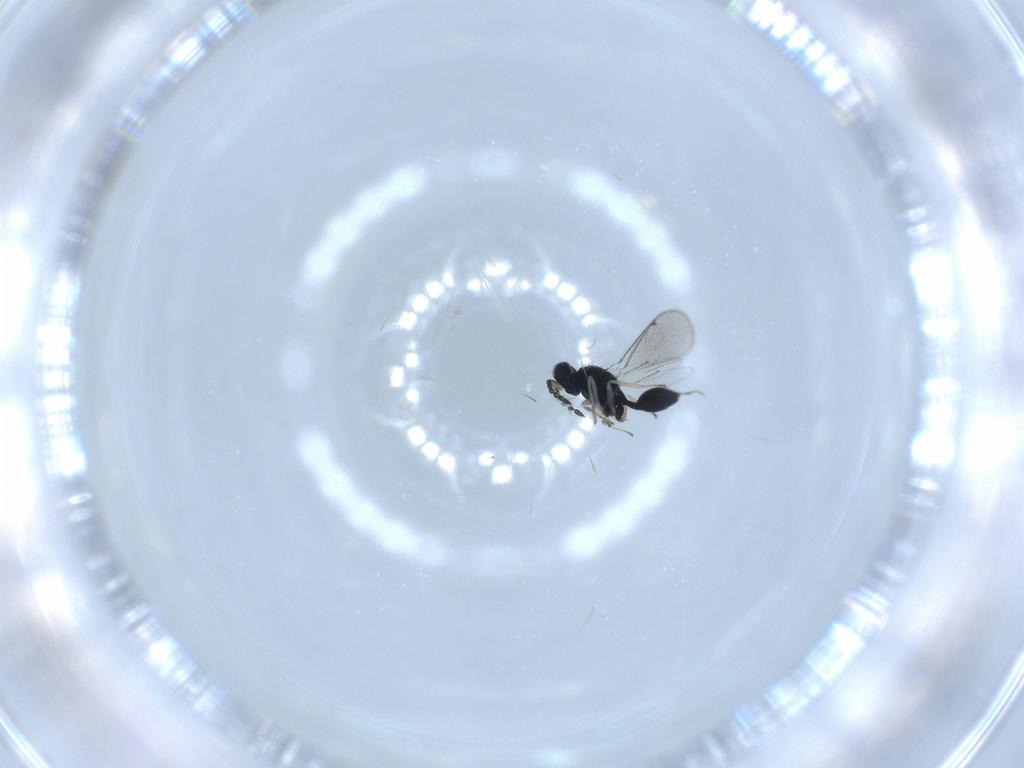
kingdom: Animalia
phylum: Arthropoda
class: Insecta
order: Hymenoptera
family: Eulophidae
